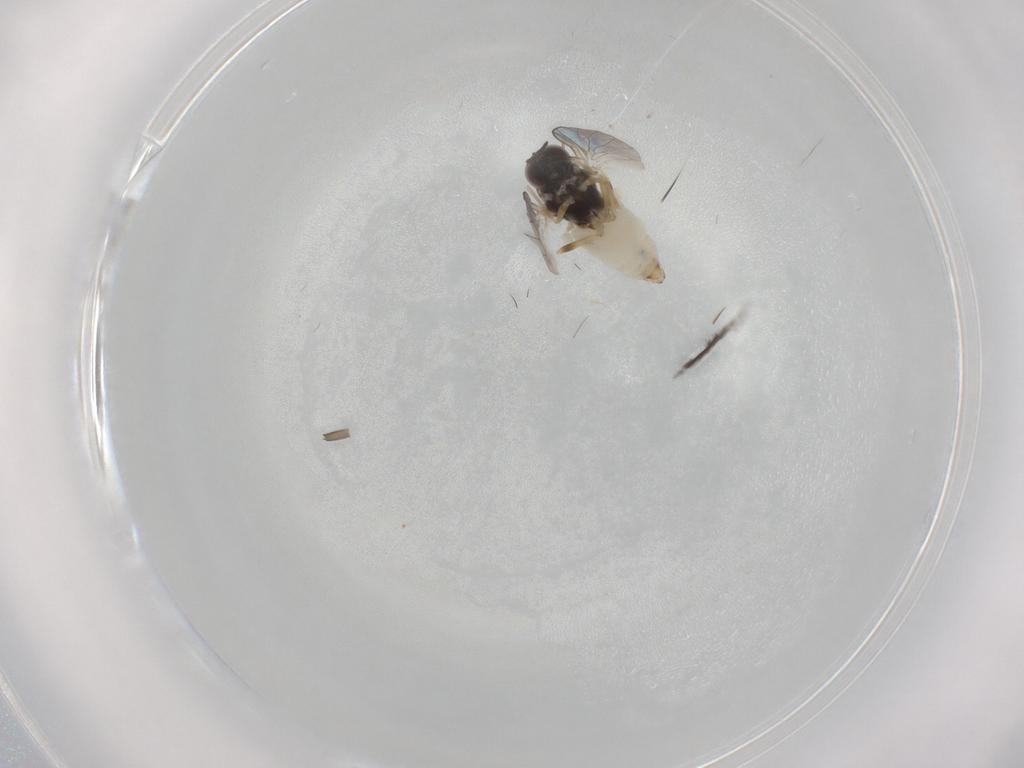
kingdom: Animalia
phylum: Arthropoda
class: Insecta
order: Diptera
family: Bombyliidae
